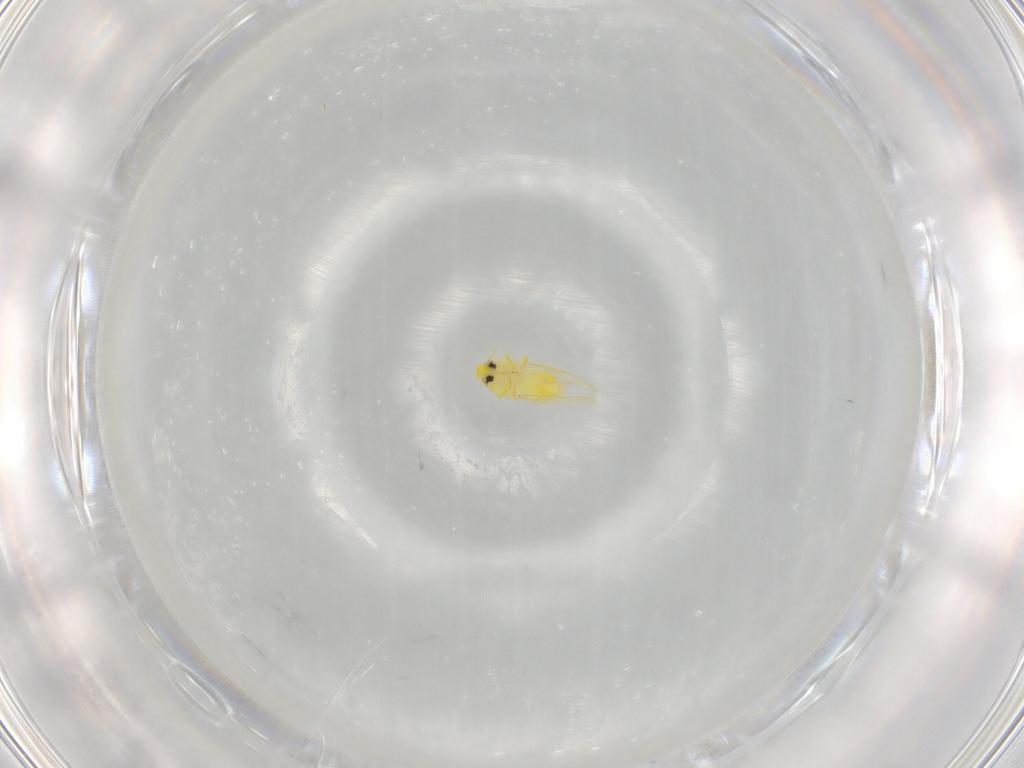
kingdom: Animalia
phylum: Arthropoda
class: Insecta
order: Hemiptera
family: Aleyrodidae
